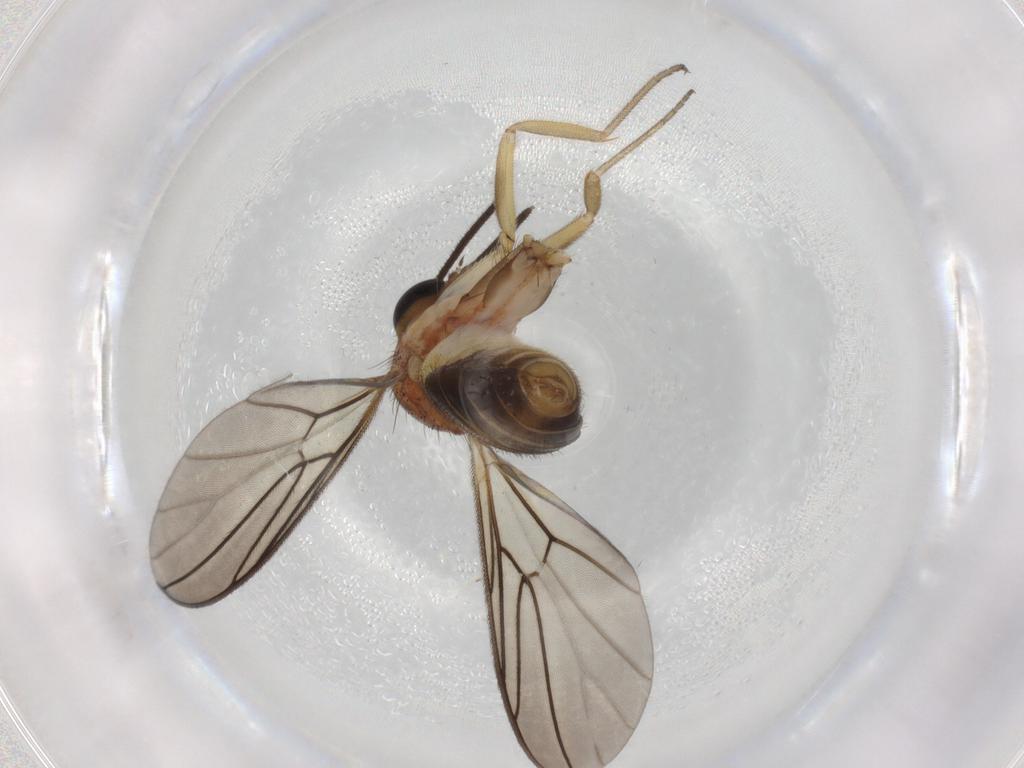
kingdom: Animalia
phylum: Arthropoda
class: Insecta
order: Diptera
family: Anisopodidae
